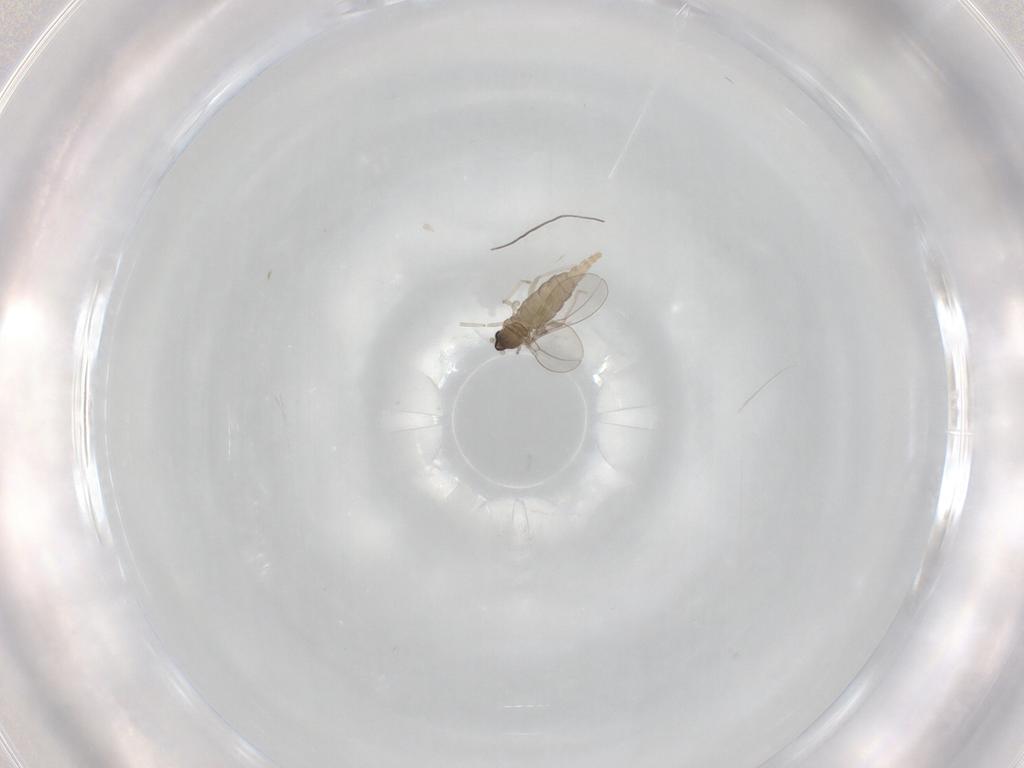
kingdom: Animalia
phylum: Arthropoda
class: Insecta
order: Diptera
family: Cecidomyiidae
